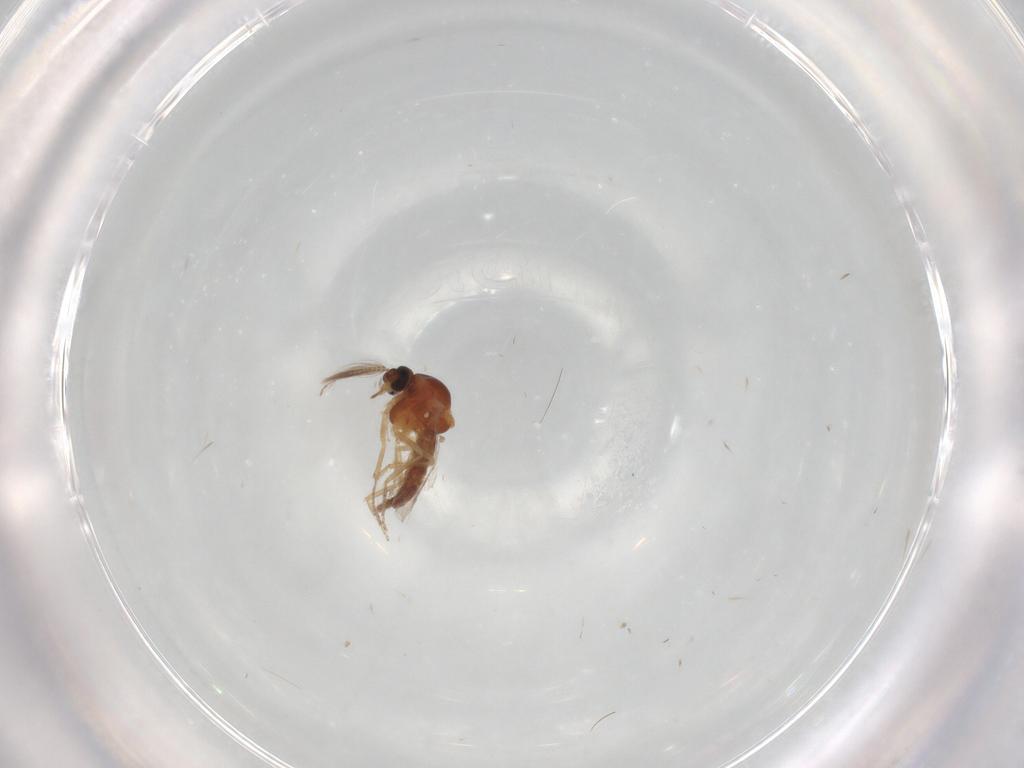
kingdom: Animalia
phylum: Arthropoda
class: Insecta
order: Diptera
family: Ceratopogonidae
